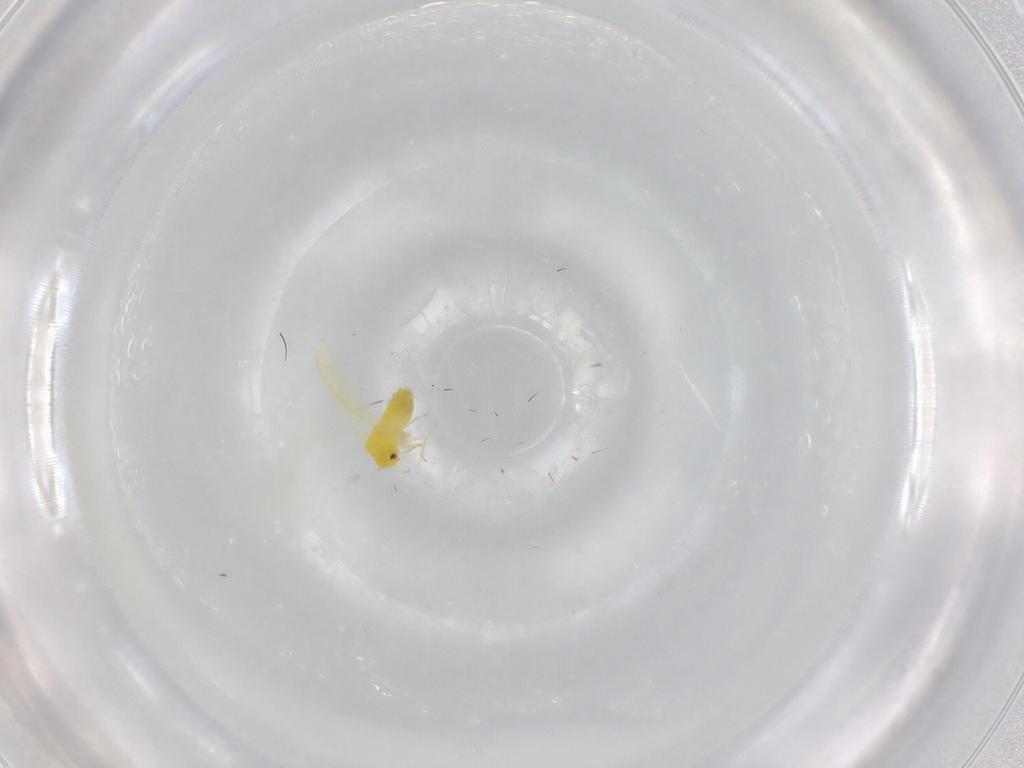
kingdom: Animalia
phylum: Arthropoda
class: Insecta
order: Hemiptera
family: Aleyrodidae
